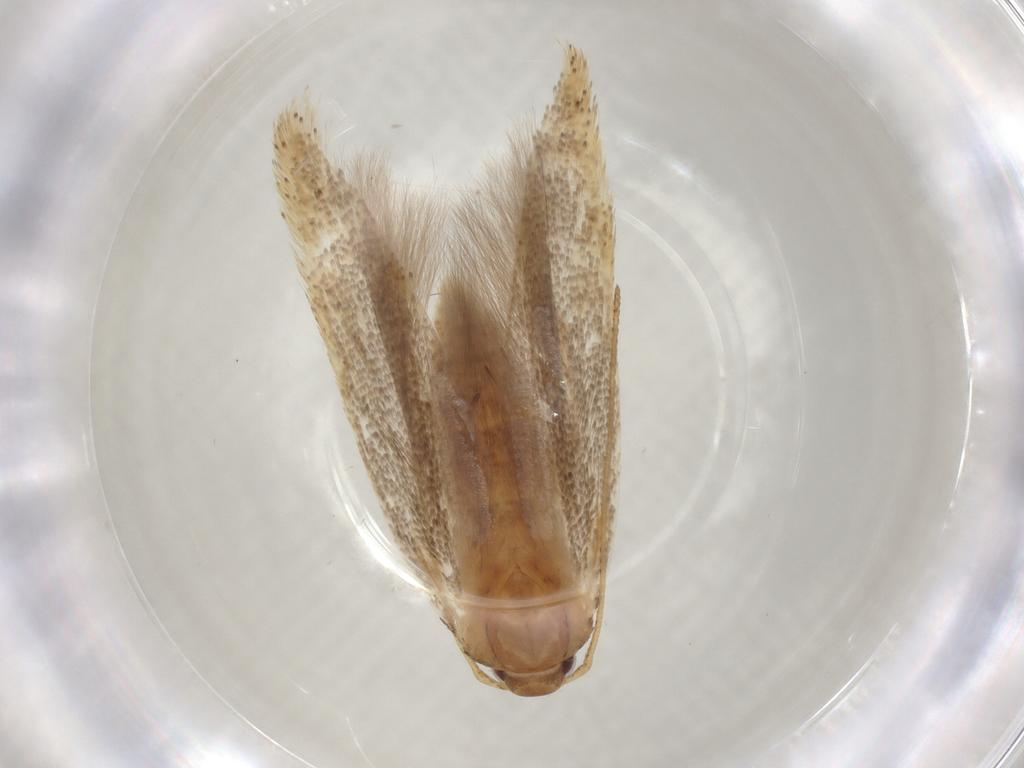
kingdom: Animalia
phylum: Arthropoda
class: Insecta
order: Lepidoptera
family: Gelechiidae
